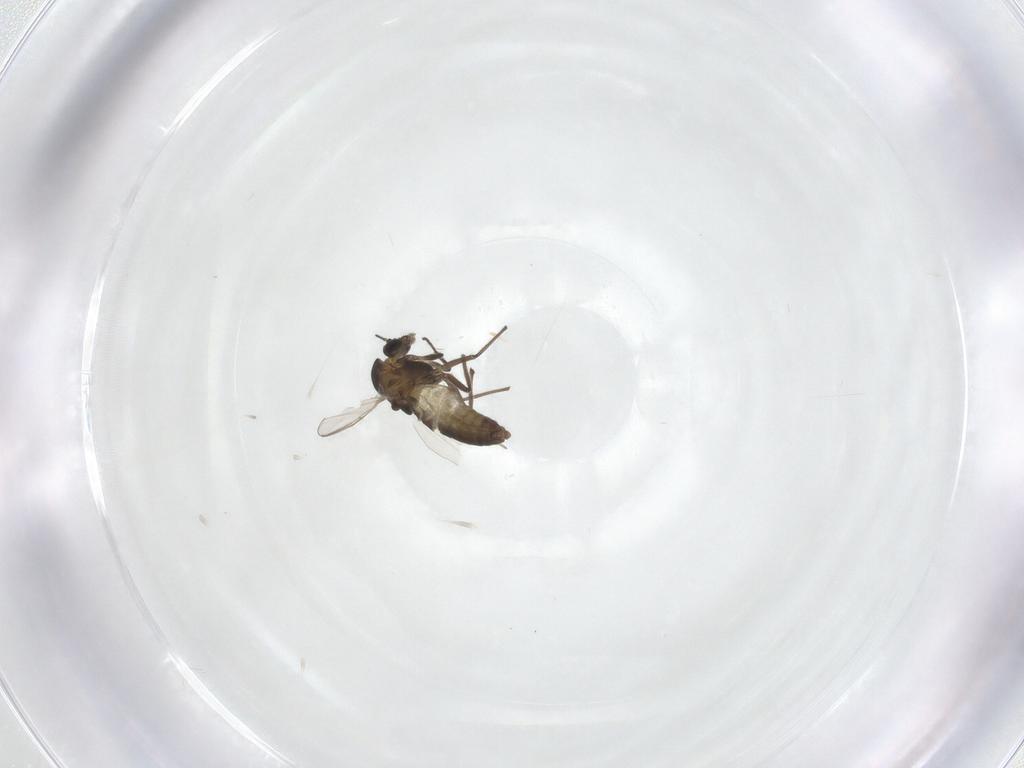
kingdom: Animalia
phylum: Arthropoda
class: Insecta
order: Diptera
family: Chironomidae
